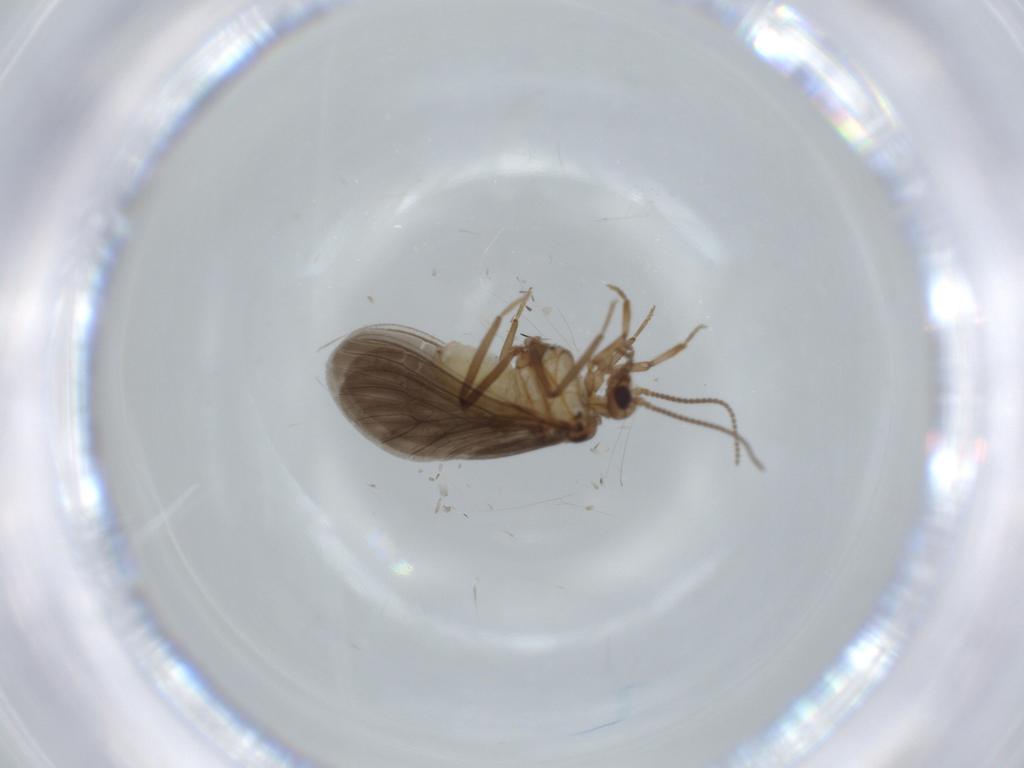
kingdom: Animalia
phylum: Arthropoda
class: Insecta
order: Neuroptera
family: Coniopterygidae
